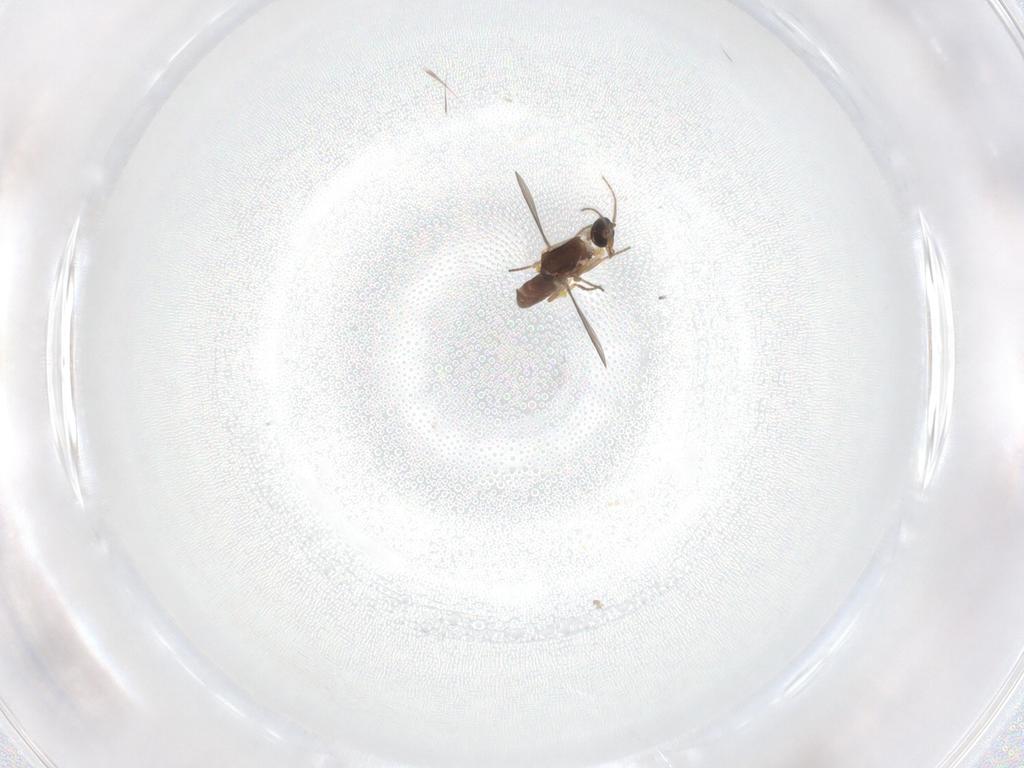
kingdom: Animalia
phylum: Arthropoda
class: Insecta
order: Diptera
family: Ceratopogonidae
